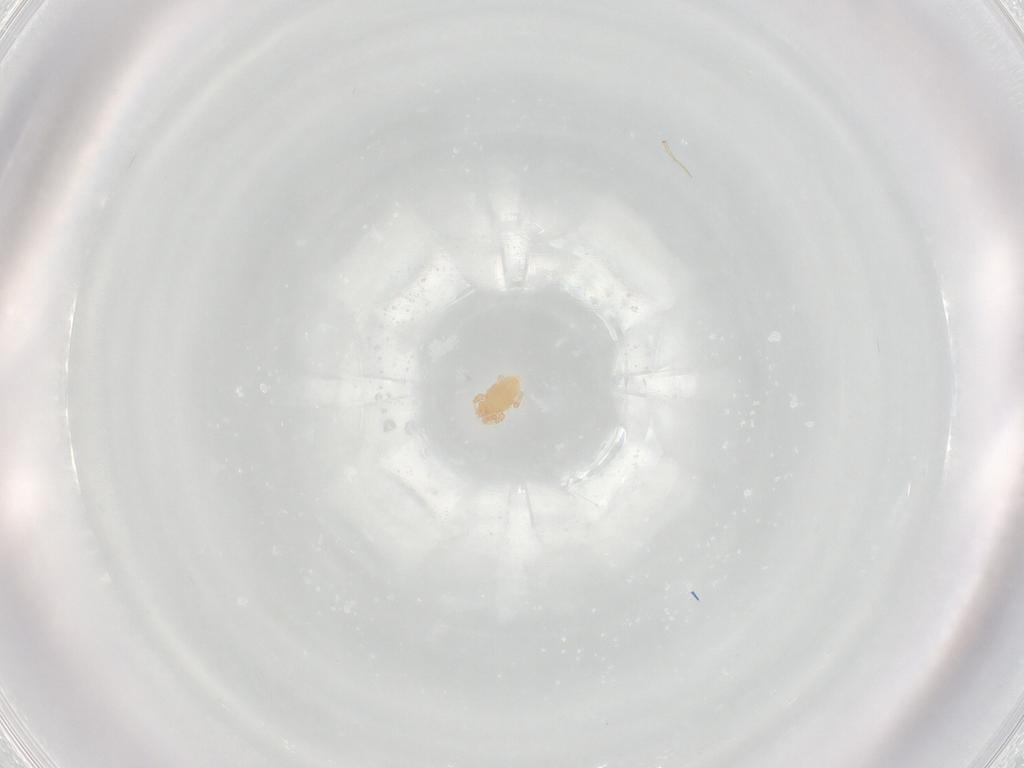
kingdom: Animalia
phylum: Arthropoda
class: Arachnida
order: Mesostigmata
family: Parasitidae
